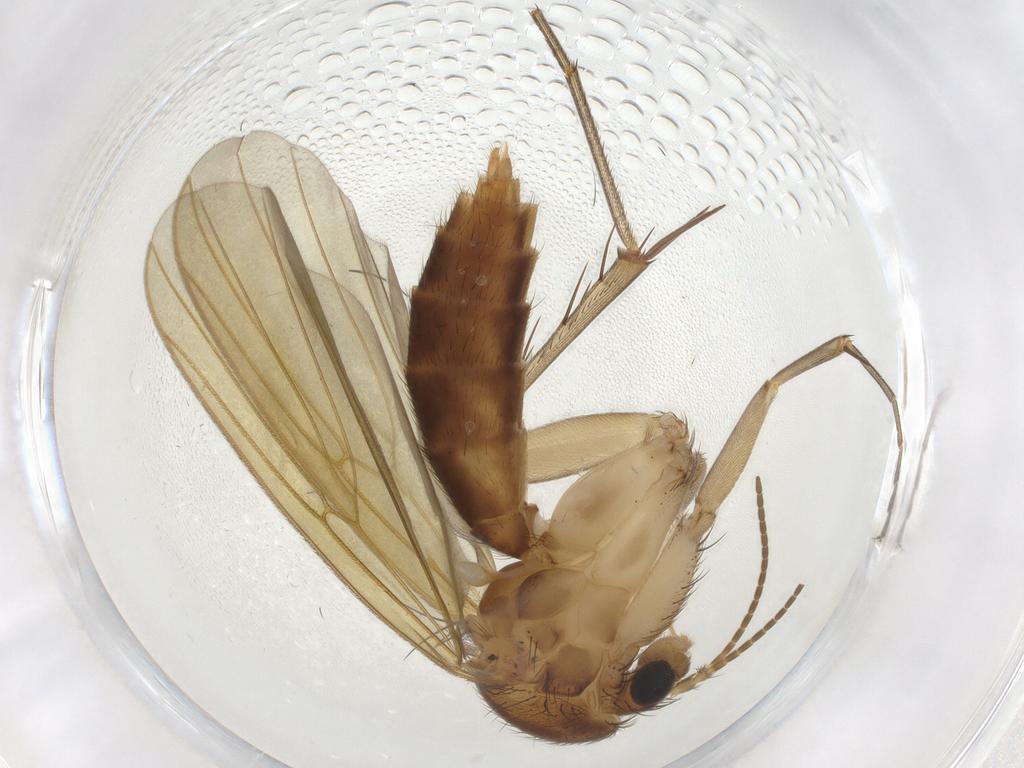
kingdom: Animalia
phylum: Arthropoda
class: Insecta
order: Diptera
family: Mycetophilidae
